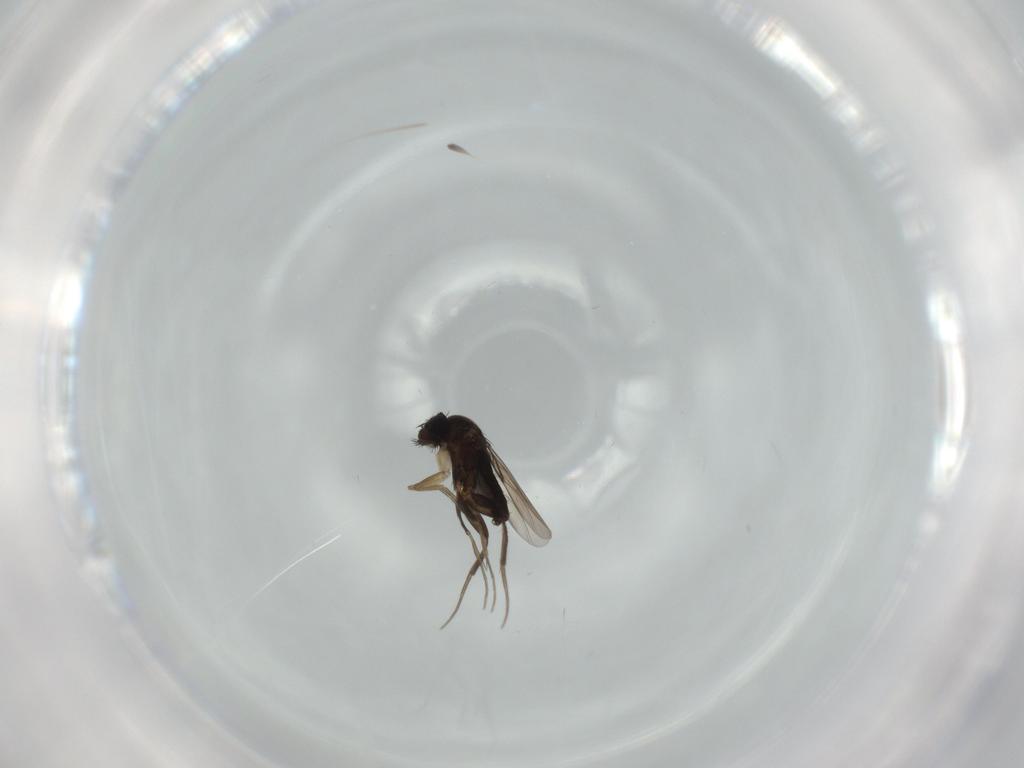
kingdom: Animalia
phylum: Arthropoda
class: Insecta
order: Diptera
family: Phoridae
